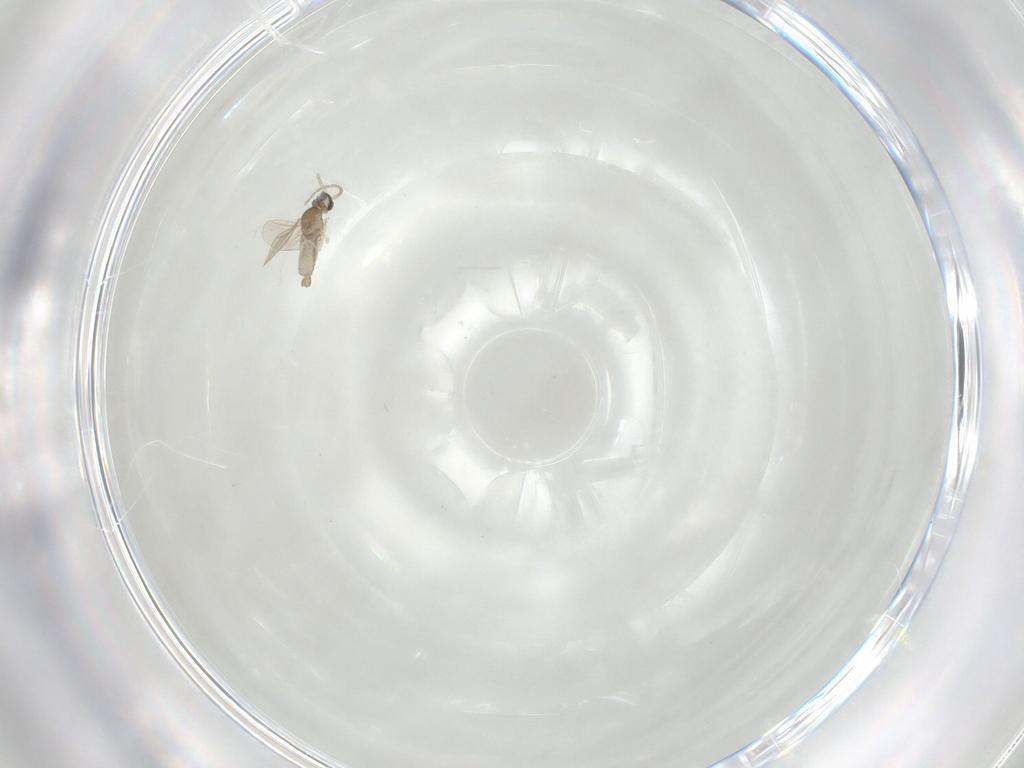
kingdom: Animalia
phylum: Arthropoda
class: Insecta
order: Diptera
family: Cecidomyiidae
